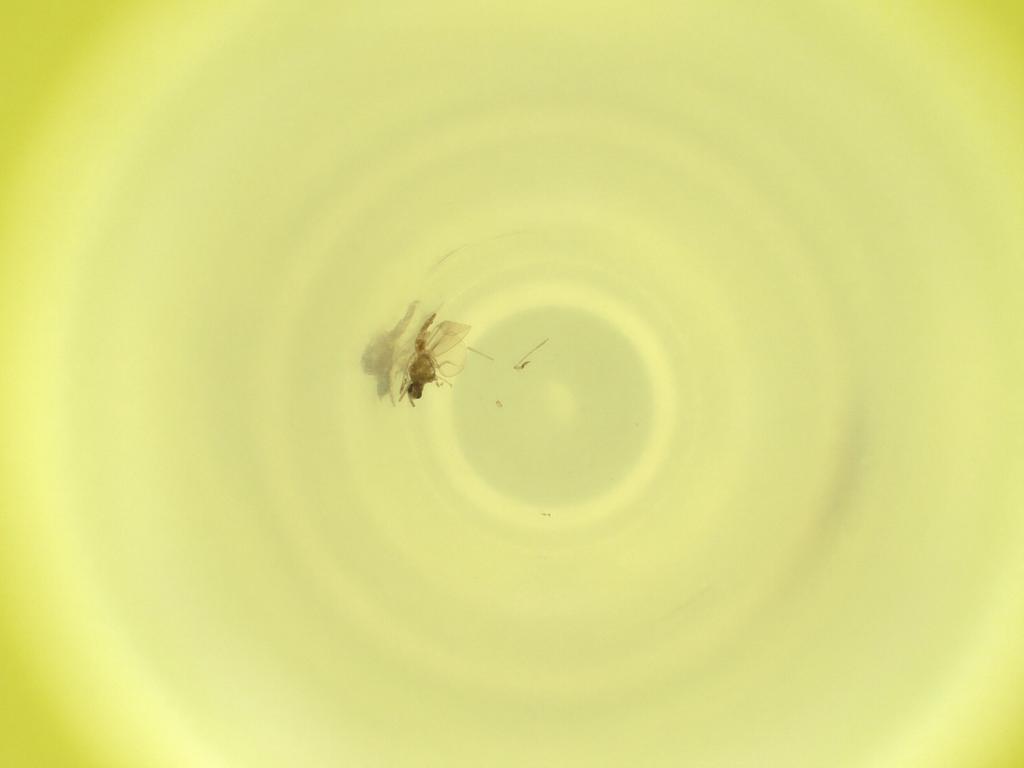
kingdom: Animalia
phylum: Arthropoda
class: Insecta
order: Diptera
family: Cecidomyiidae
